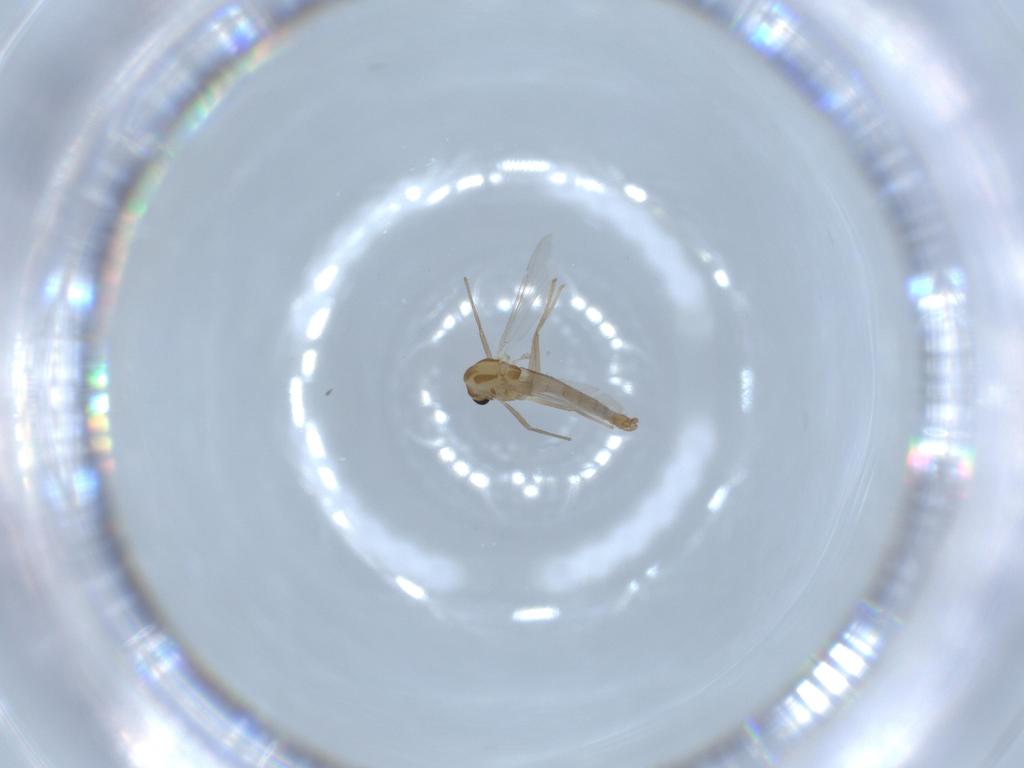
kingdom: Animalia
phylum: Arthropoda
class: Insecta
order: Diptera
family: Chironomidae
